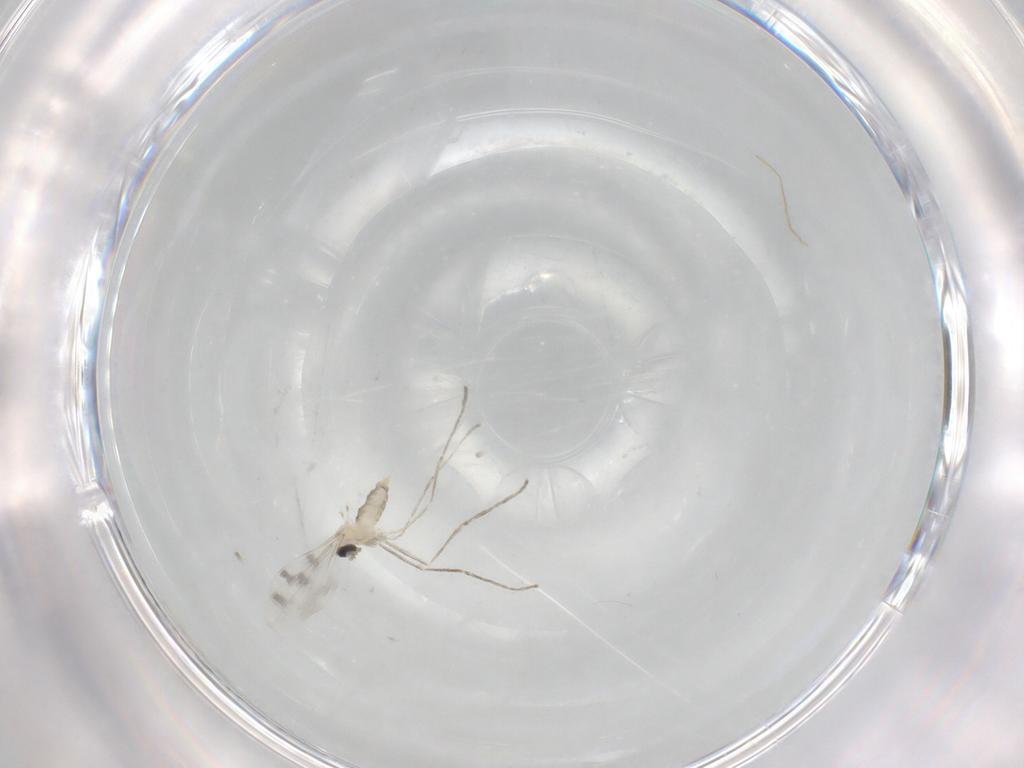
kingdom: Animalia
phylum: Arthropoda
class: Insecta
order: Diptera
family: Cecidomyiidae
